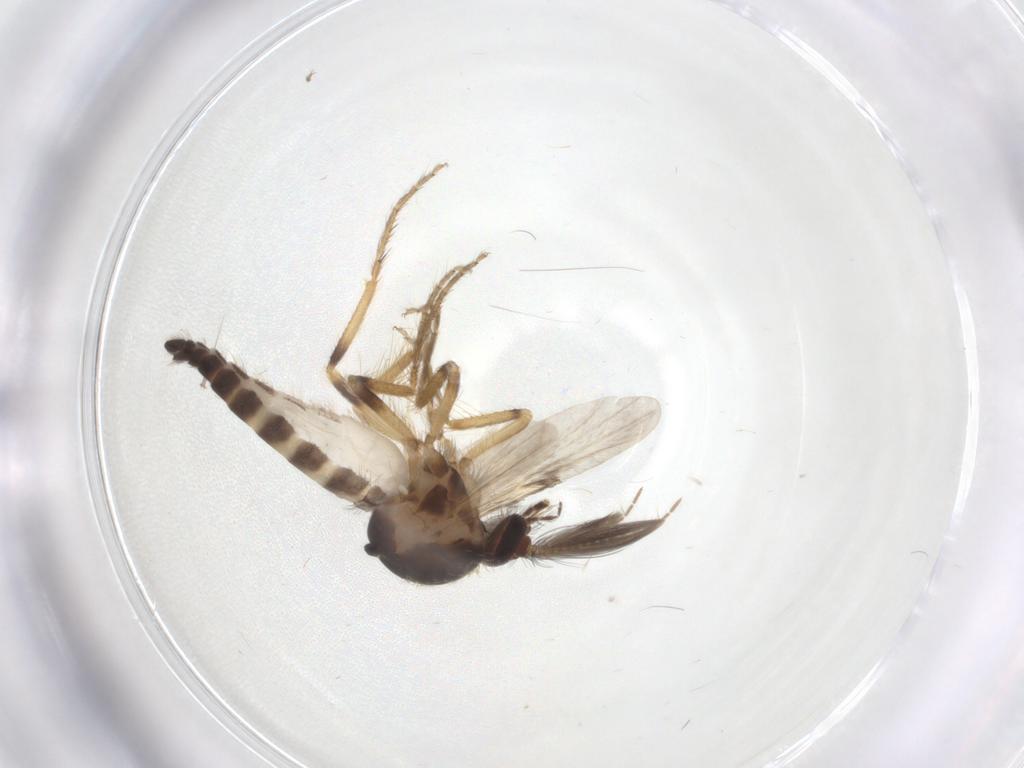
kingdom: Animalia
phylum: Arthropoda
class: Insecta
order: Diptera
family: Ceratopogonidae
